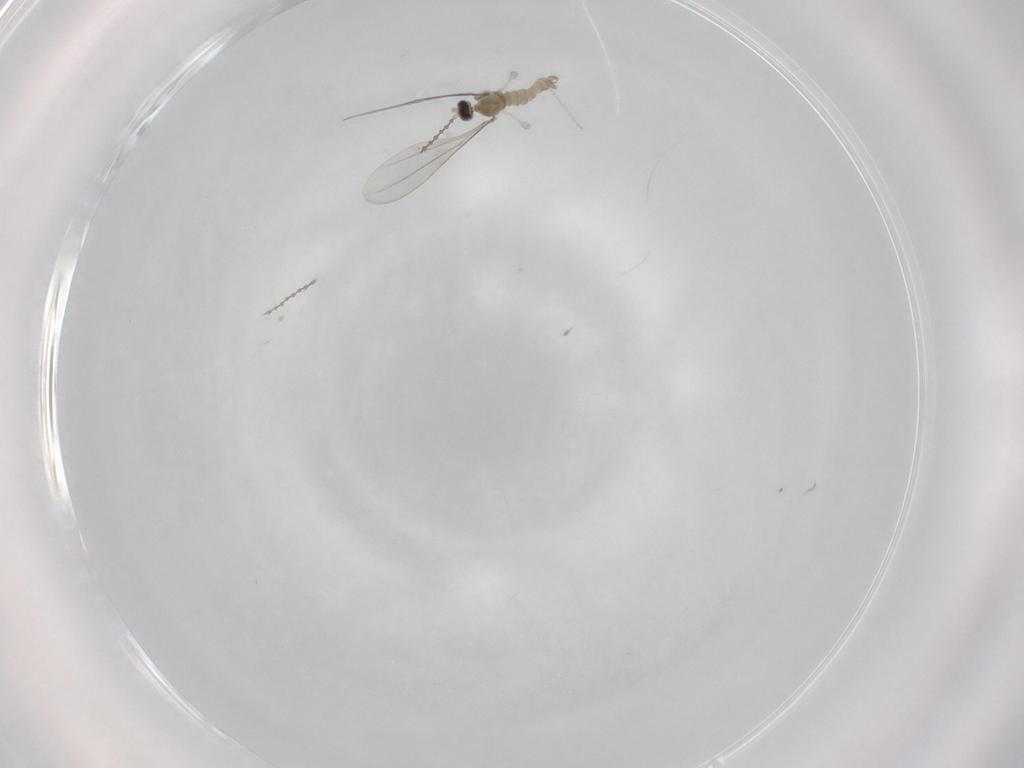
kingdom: Animalia
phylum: Arthropoda
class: Insecta
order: Diptera
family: Cecidomyiidae
